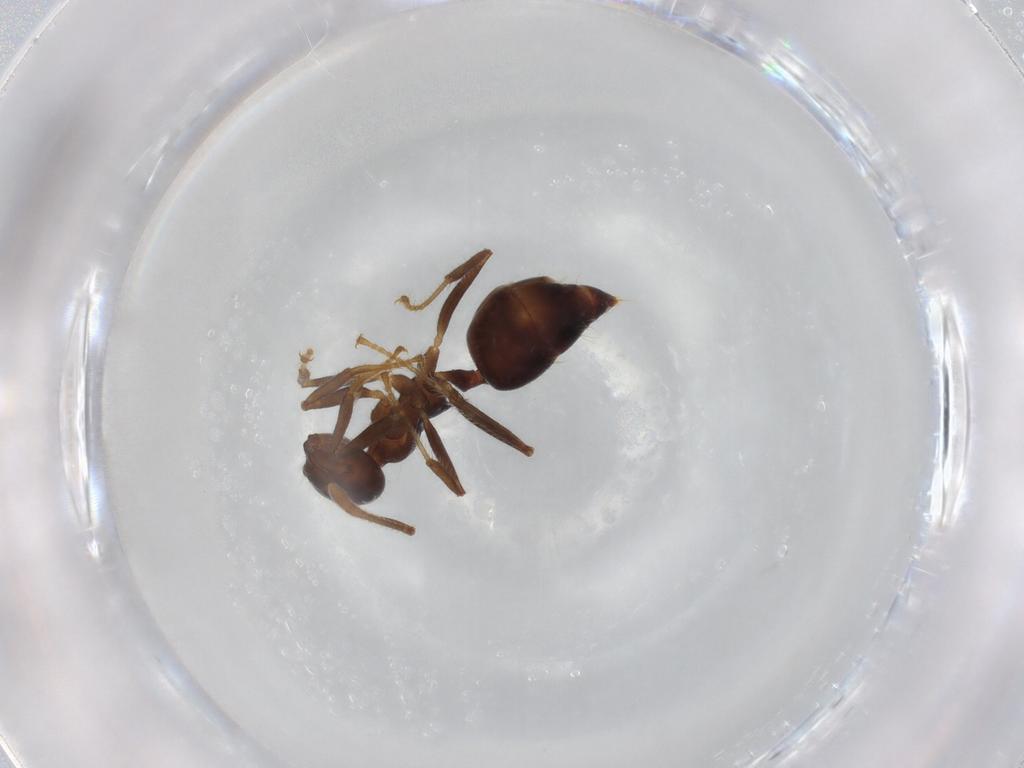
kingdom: Animalia
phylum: Arthropoda
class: Insecta
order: Hymenoptera
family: Formicidae
